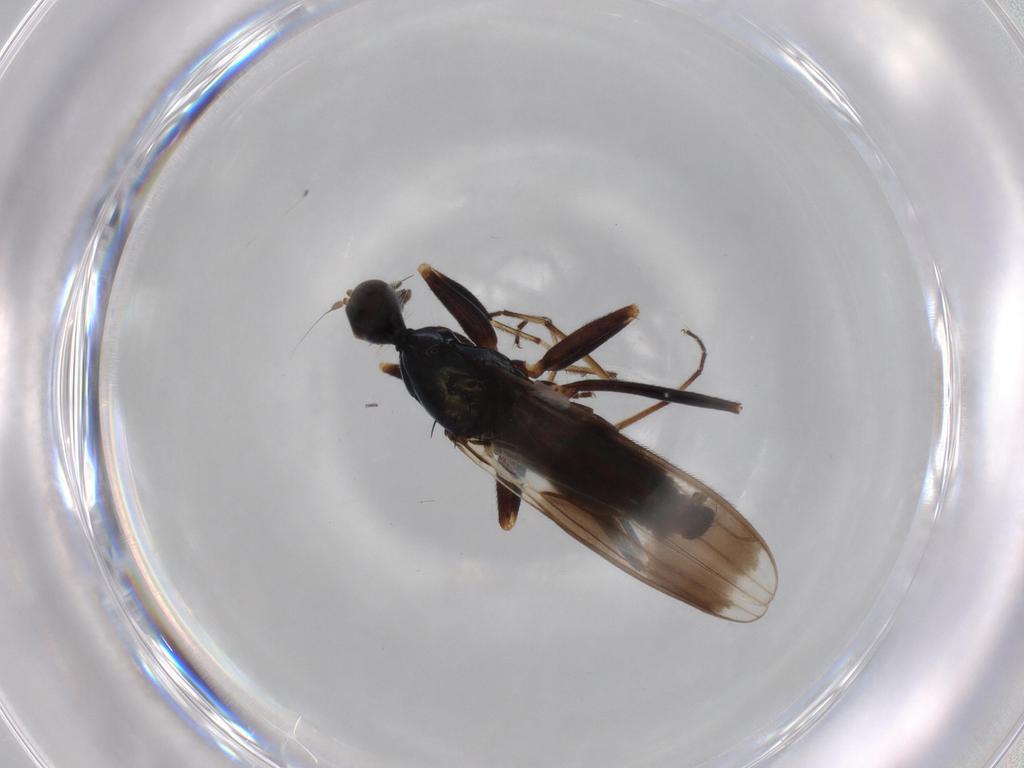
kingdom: Animalia
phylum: Arthropoda
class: Insecta
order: Diptera
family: Hybotidae
